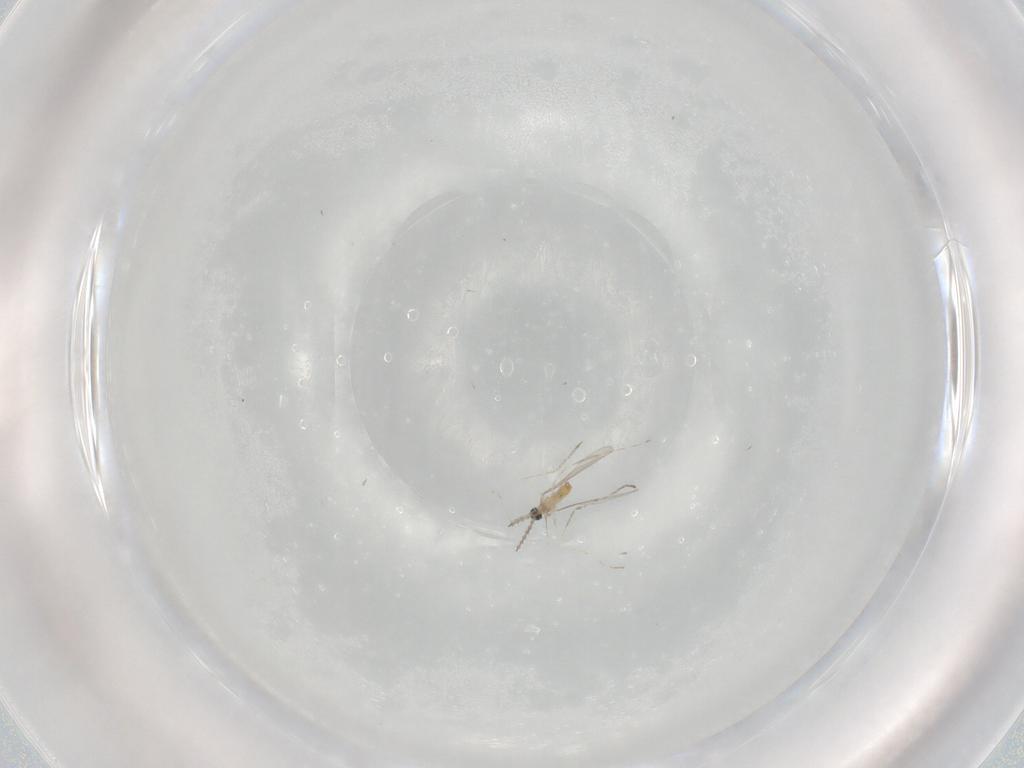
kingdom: Animalia
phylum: Arthropoda
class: Insecta
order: Diptera
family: Cecidomyiidae
